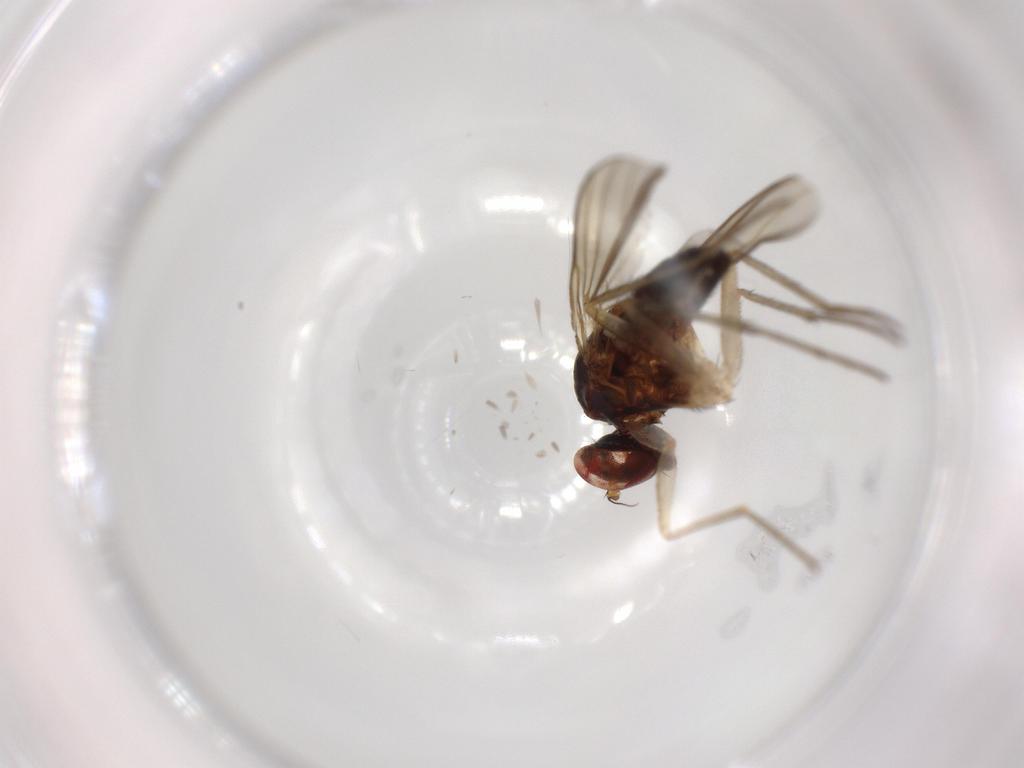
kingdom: Animalia
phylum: Arthropoda
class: Insecta
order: Diptera
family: Dolichopodidae
